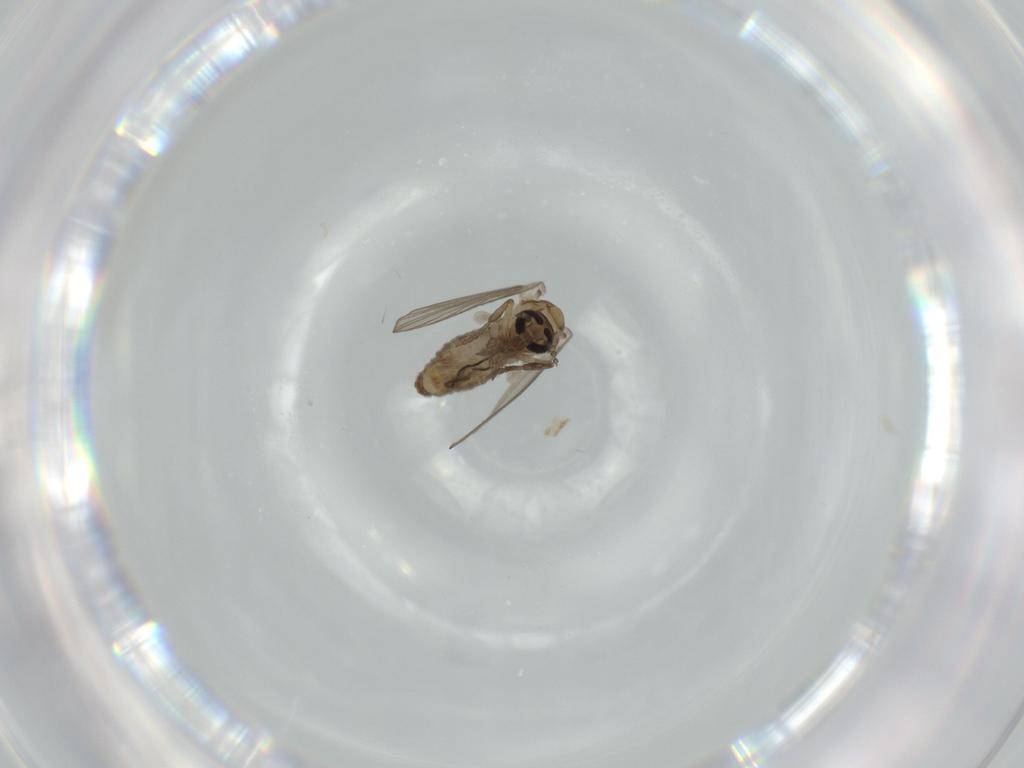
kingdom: Animalia
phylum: Arthropoda
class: Insecta
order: Diptera
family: Psychodidae
